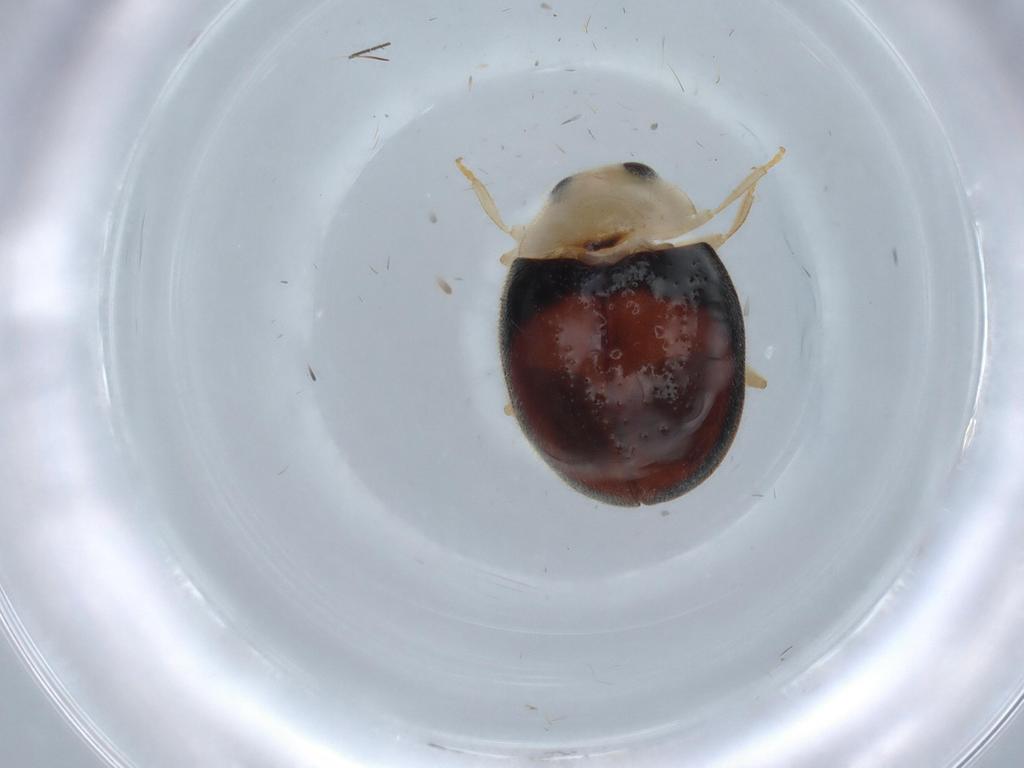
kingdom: Animalia
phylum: Arthropoda
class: Insecta
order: Coleoptera
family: Coccinellidae
